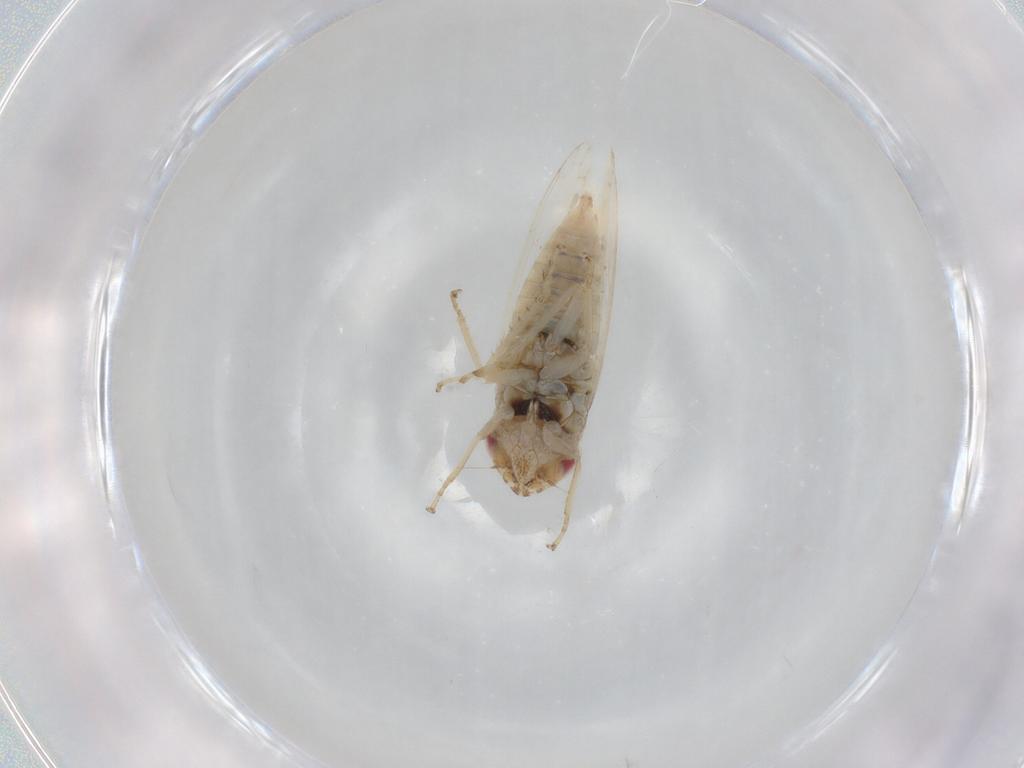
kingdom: Animalia
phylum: Arthropoda
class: Insecta
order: Hemiptera
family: Cicadellidae
